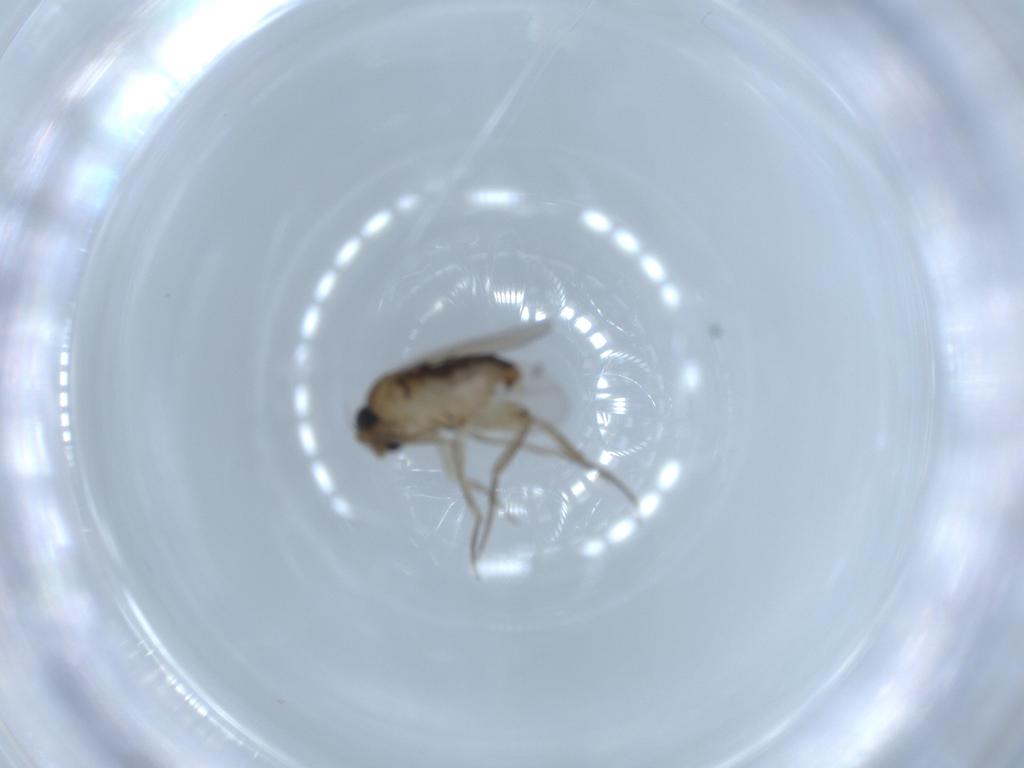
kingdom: Animalia
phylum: Arthropoda
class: Insecta
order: Diptera
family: Phoridae
